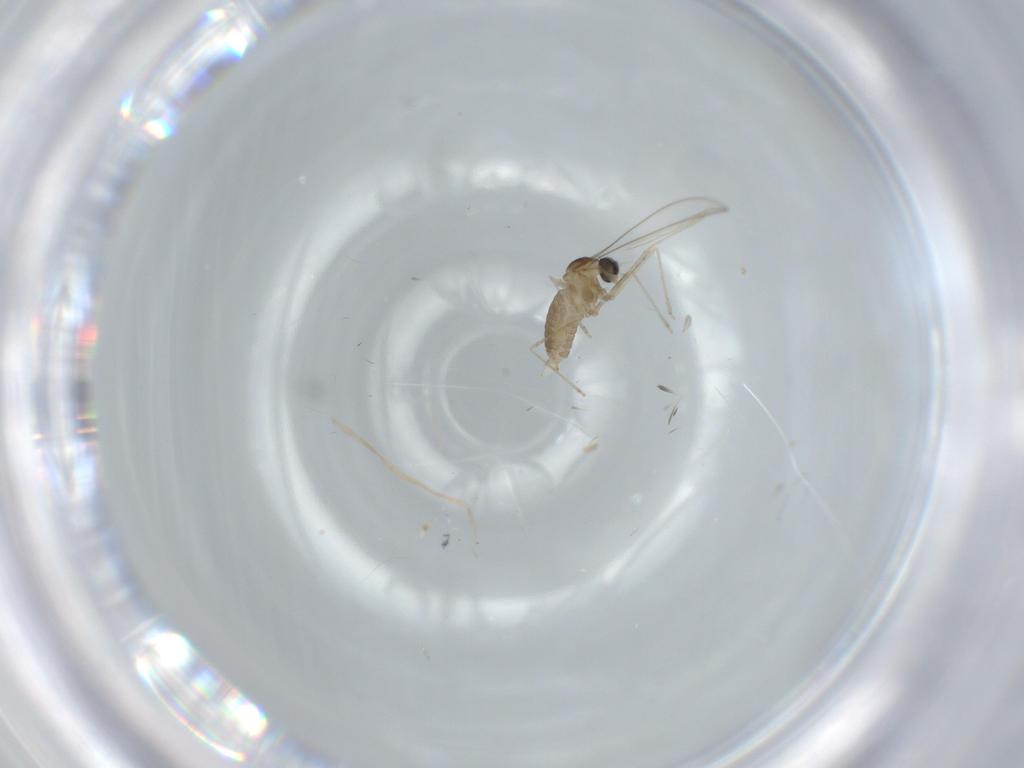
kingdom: Animalia
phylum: Arthropoda
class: Insecta
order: Diptera
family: Cecidomyiidae
